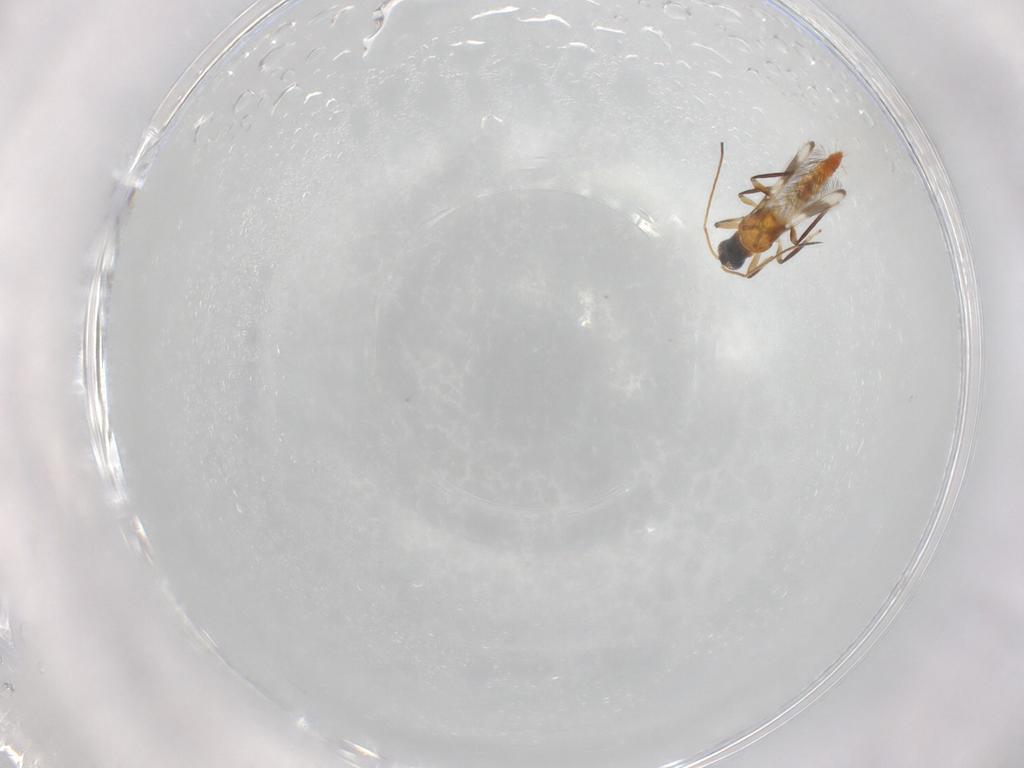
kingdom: Animalia
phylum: Arthropoda
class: Insecta
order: Thysanoptera
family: Aeolothripidae
